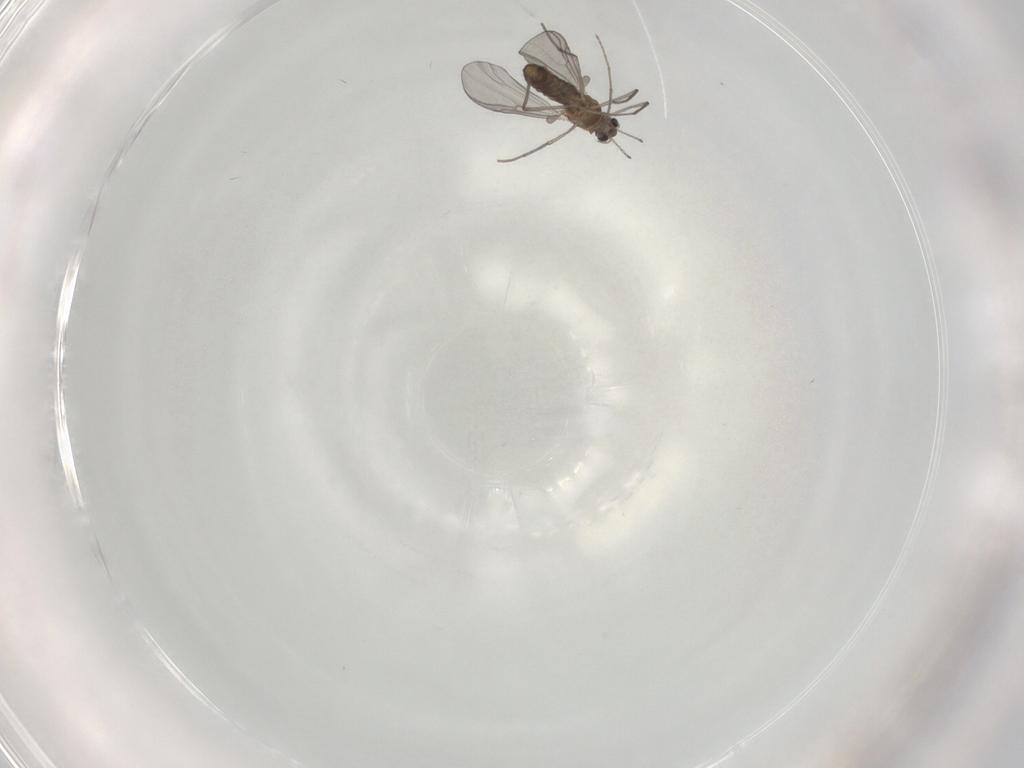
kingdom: Animalia
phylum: Arthropoda
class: Insecta
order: Diptera
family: Chironomidae
